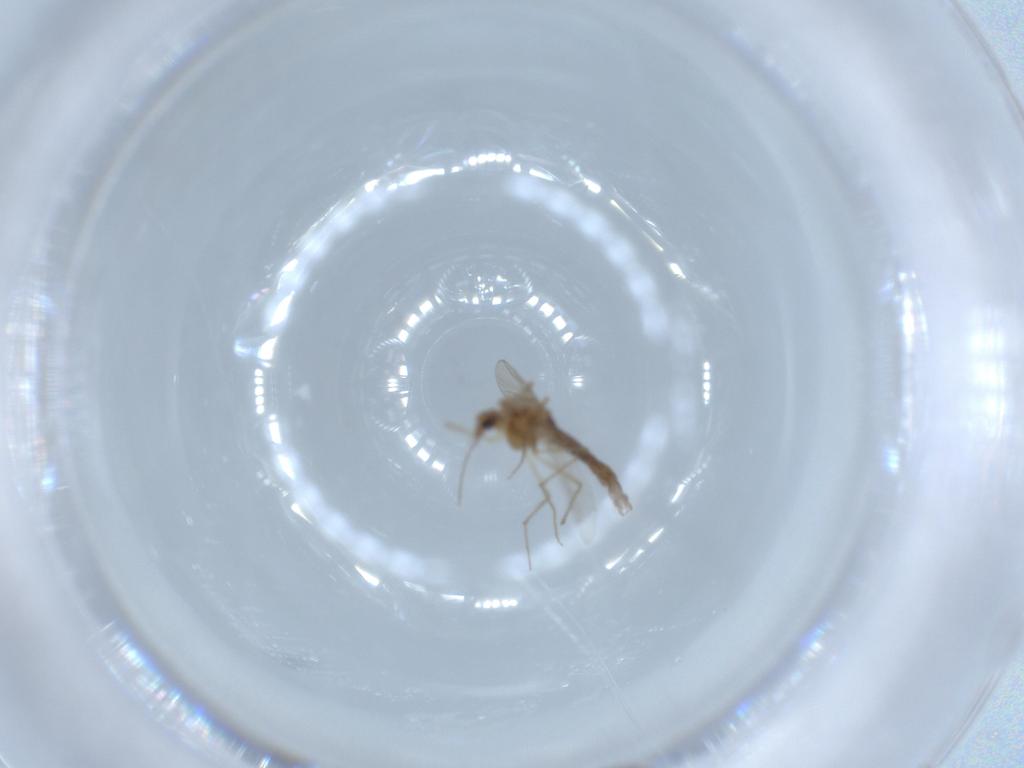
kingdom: Animalia
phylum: Arthropoda
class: Insecta
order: Diptera
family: Chironomidae
